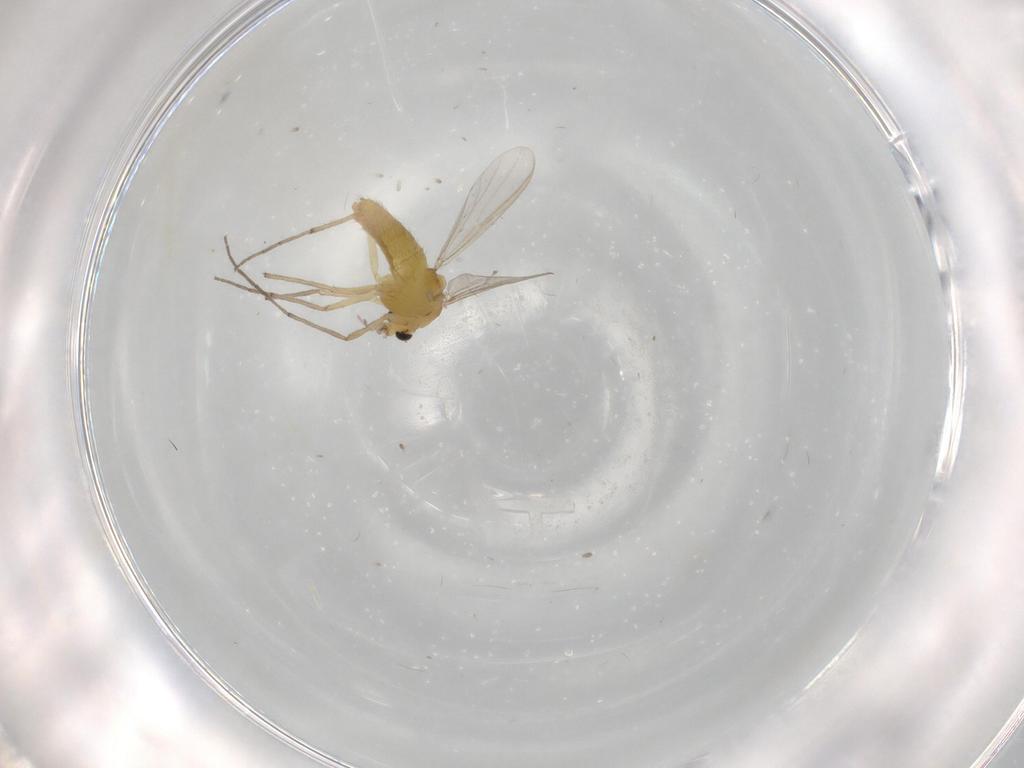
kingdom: Animalia
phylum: Arthropoda
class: Insecta
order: Diptera
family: Chironomidae
